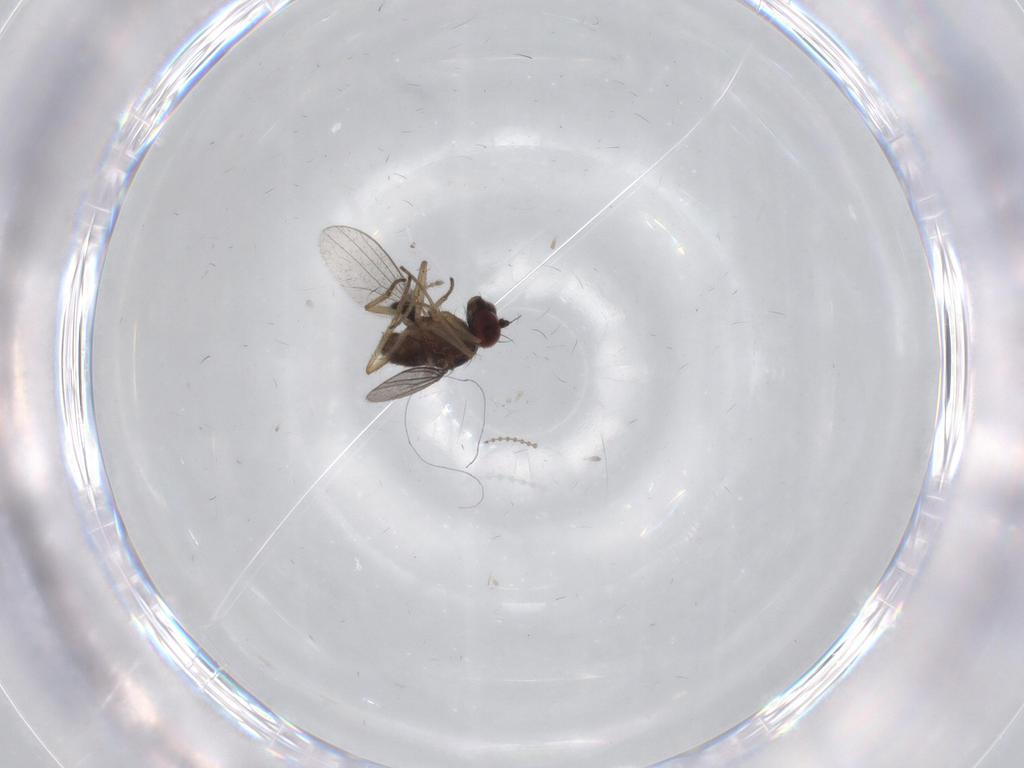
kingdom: Animalia
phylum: Arthropoda
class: Insecta
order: Diptera
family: Dolichopodidae
